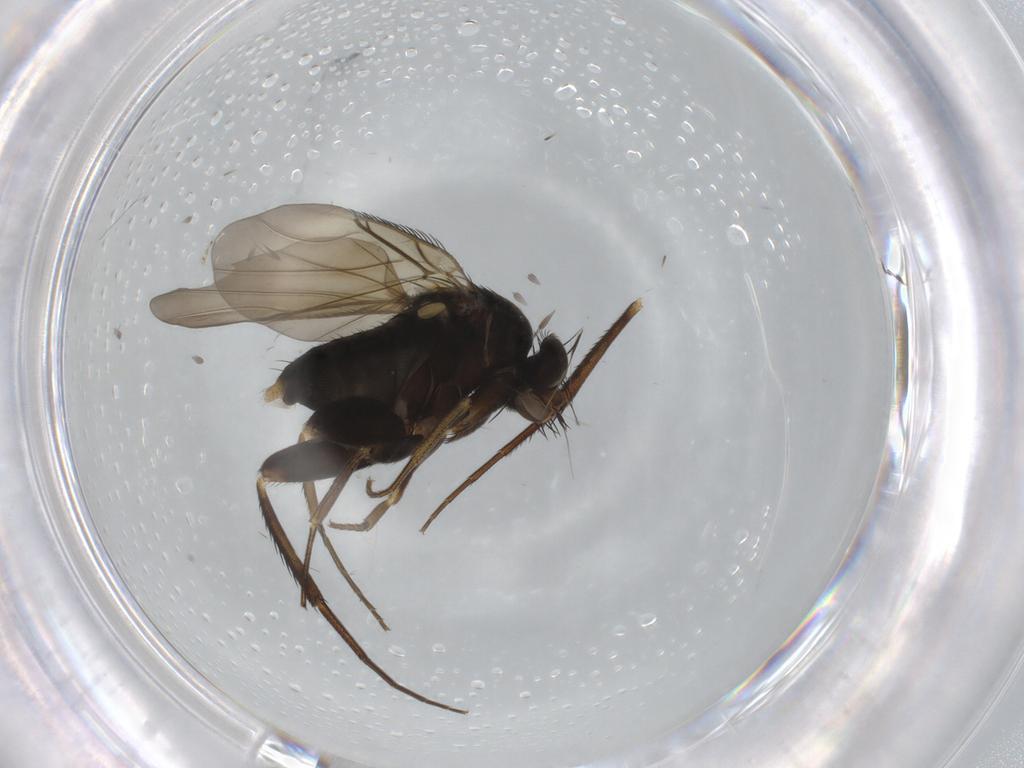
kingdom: Animalia
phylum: Arthropoda
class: Insecta
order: Diptera
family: Phoridae
